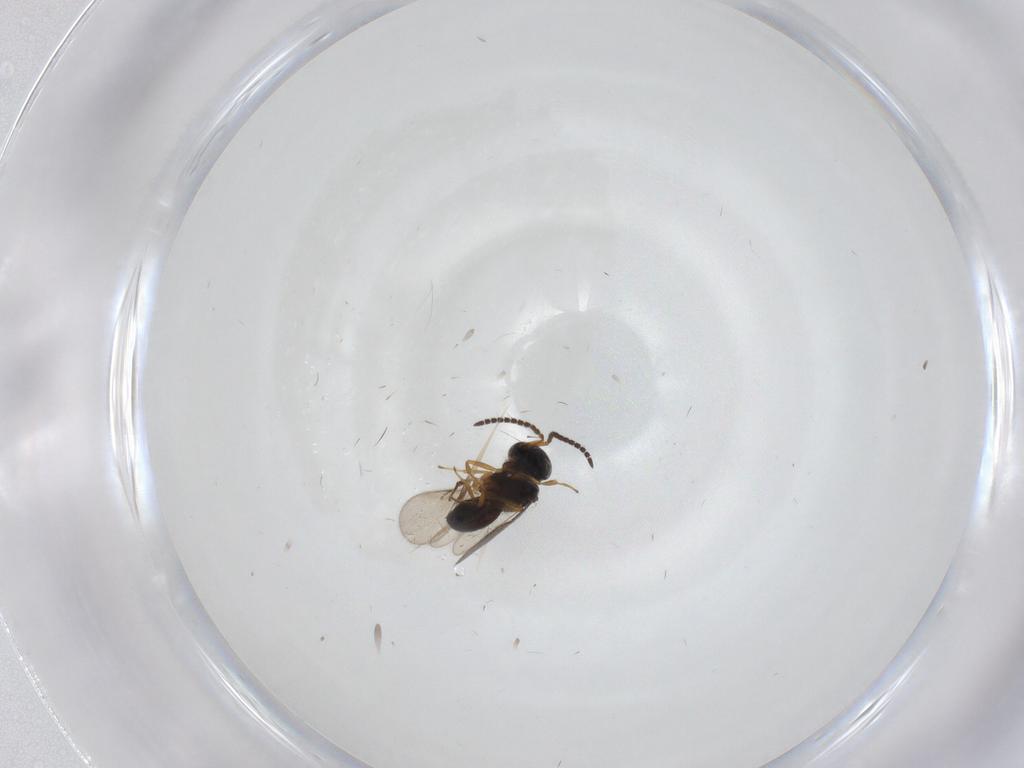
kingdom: Animalia
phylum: Arthropoda
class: Insecta
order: Hymenoptera
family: Scelionidae
